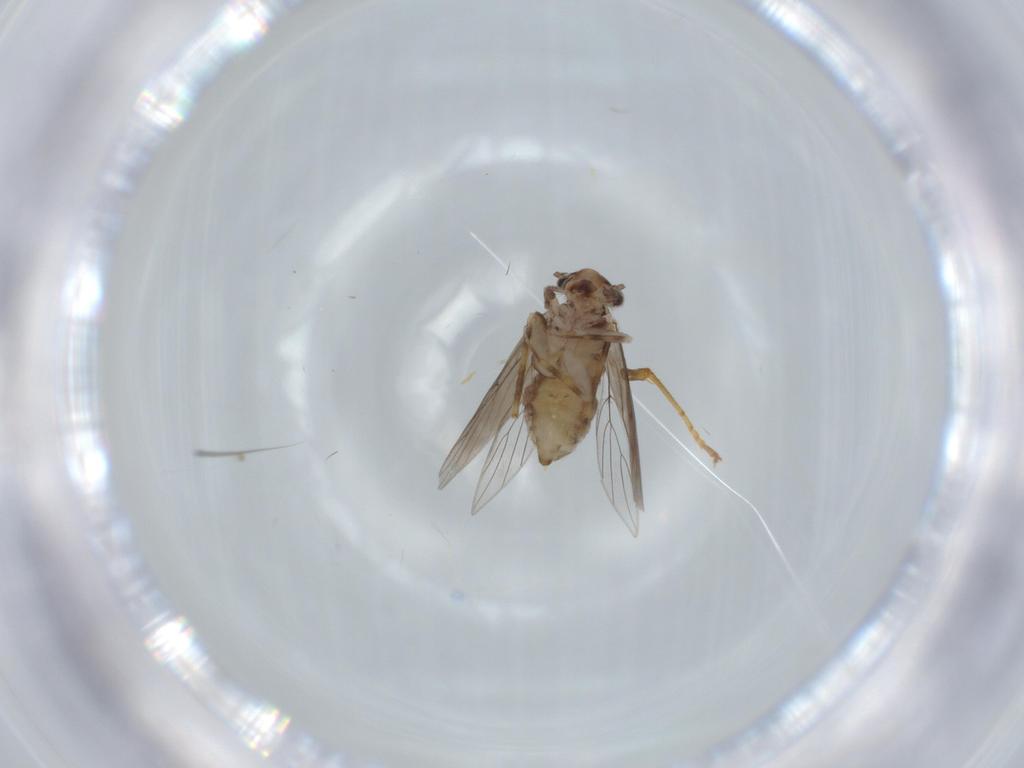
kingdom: Animalia
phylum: Arthropoda
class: Insecta
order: Psocodea
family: Lepidopsocidae
